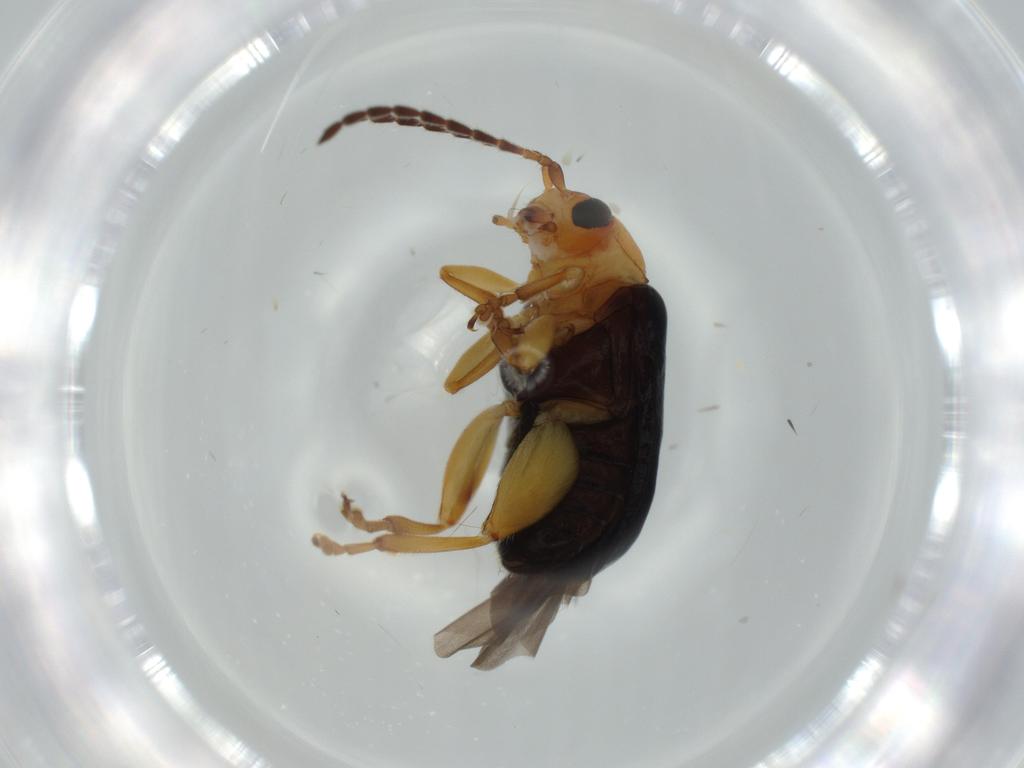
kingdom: Animalia
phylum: Arthropoda
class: Insecta
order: Coleoptera
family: Chrysomelidae
